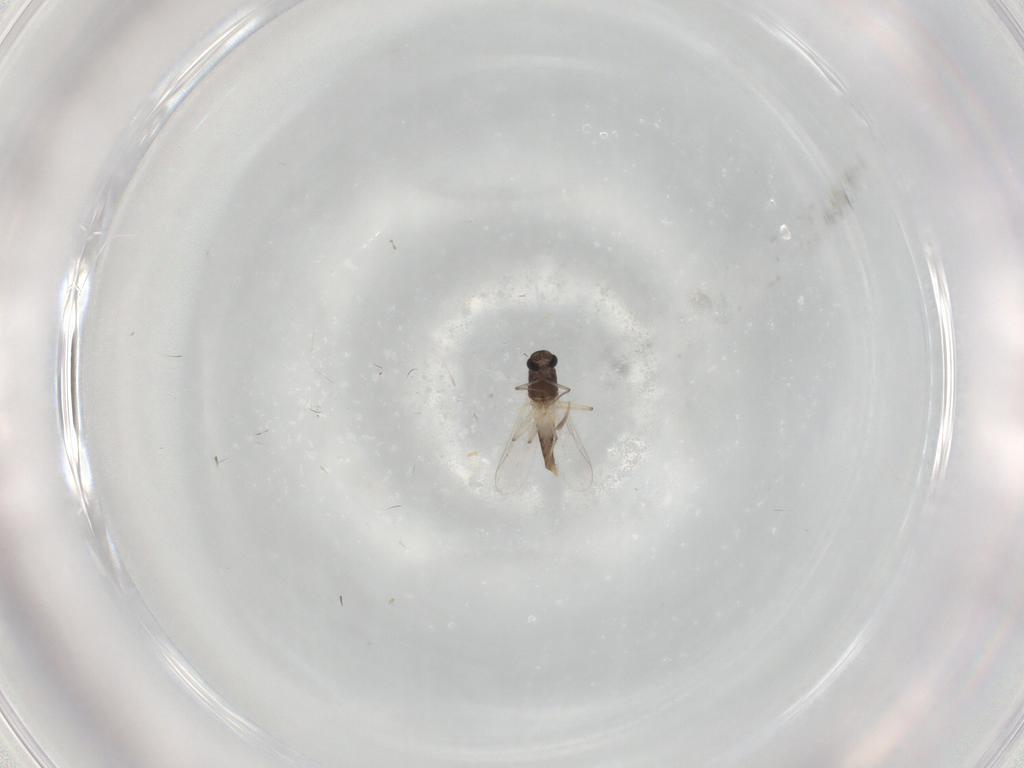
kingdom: Animalia
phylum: Arthropoda
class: Insecta
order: Diptera
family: Chironomidae
